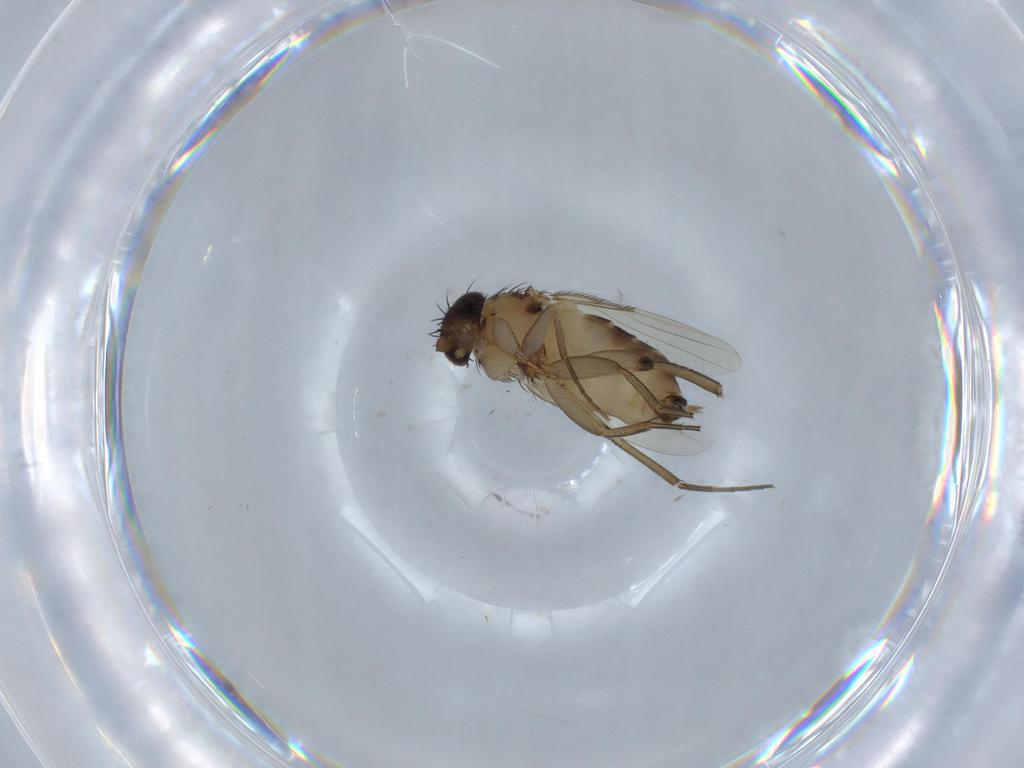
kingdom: Animalia
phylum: Arthropoda
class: Insecta
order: Diptera
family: Phoridae
